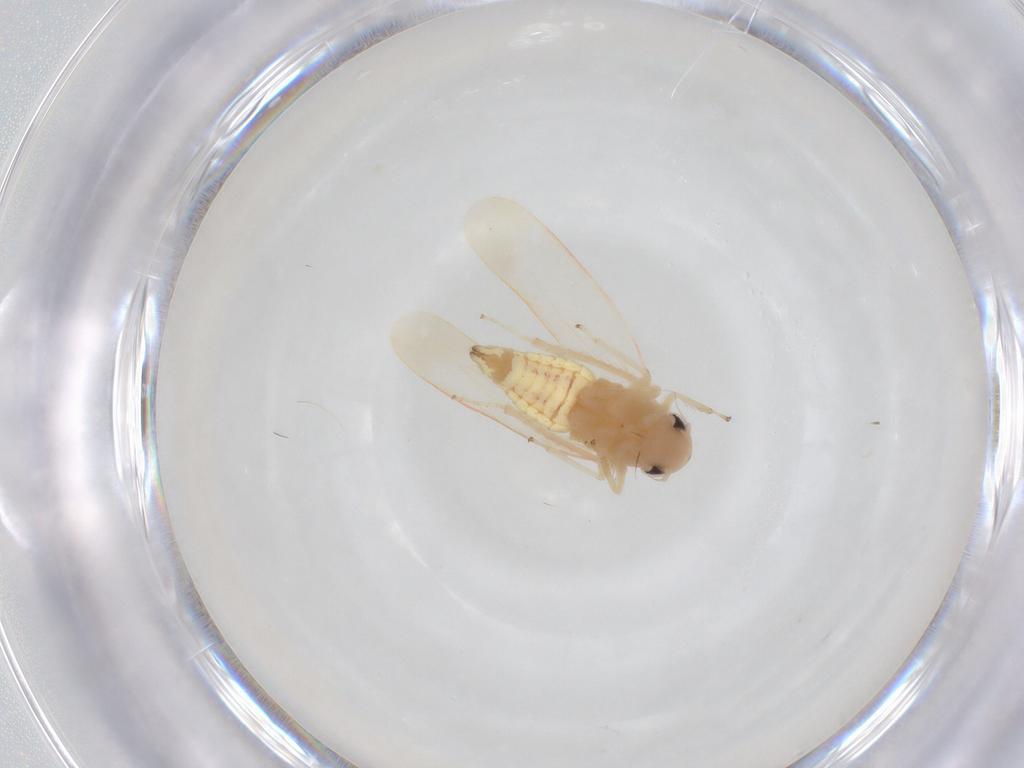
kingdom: Animalia
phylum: Arthropoda
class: Insecta
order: Hemiptera
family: Cicadellidae
